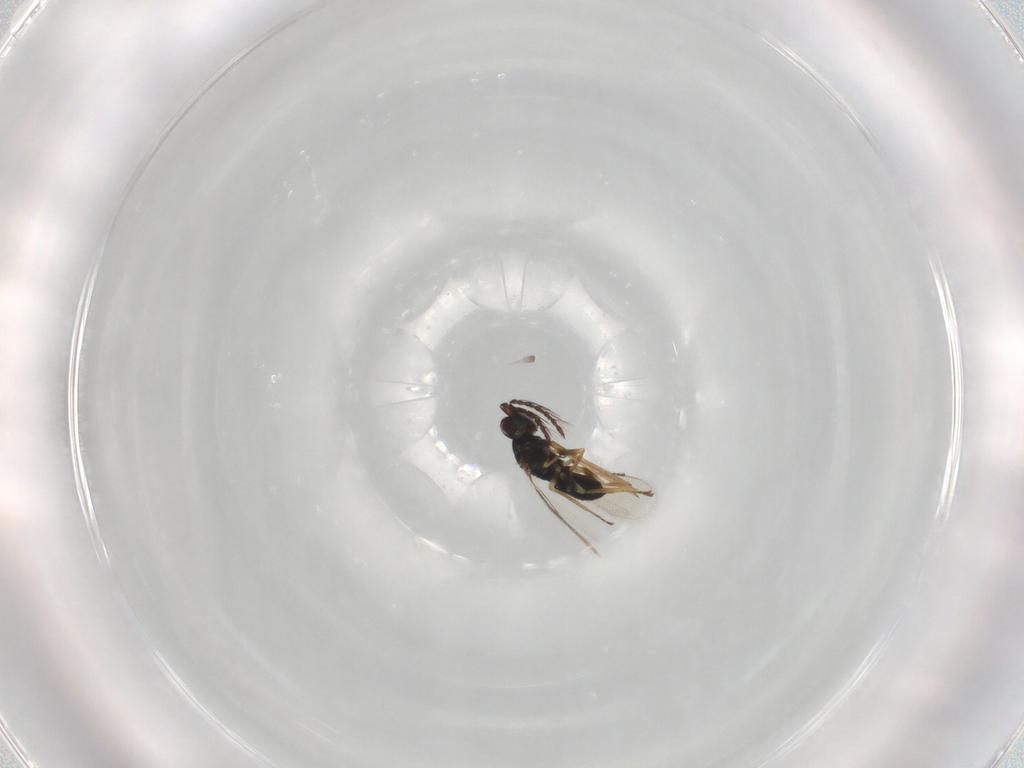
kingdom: Animalia
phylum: Arthropoda
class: Insecta
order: Hymenoptera
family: Eulophidae
